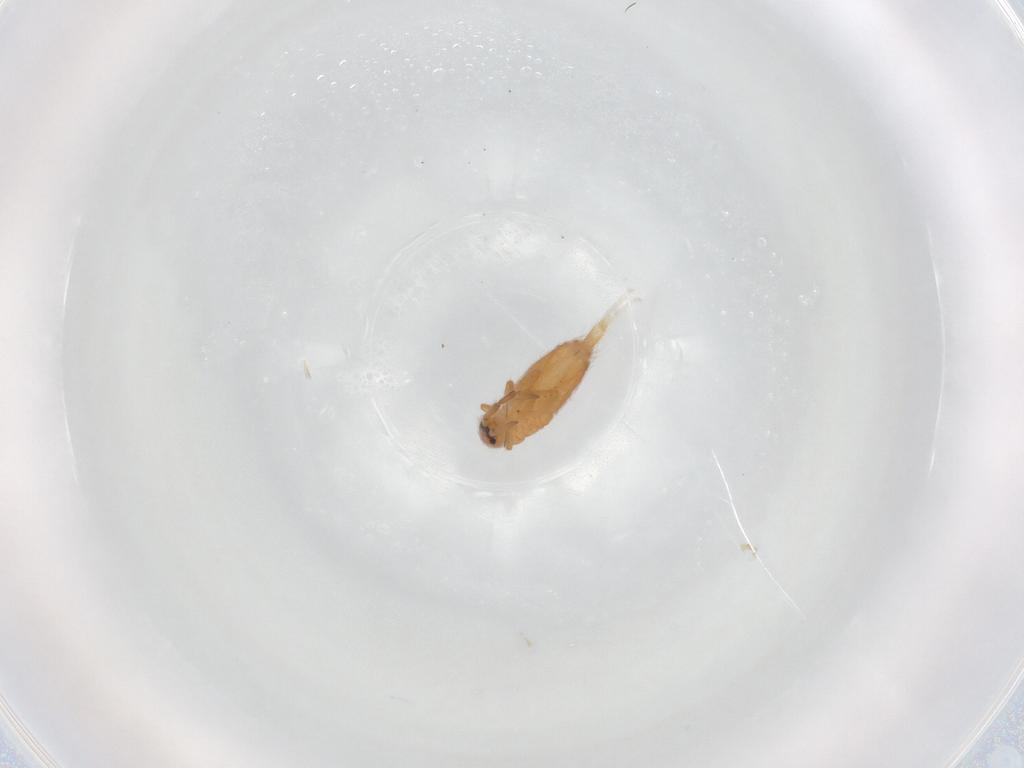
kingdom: Animalia
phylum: Arthropoda
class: Collembola
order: Entomobryomorpha
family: Entomobryidae
